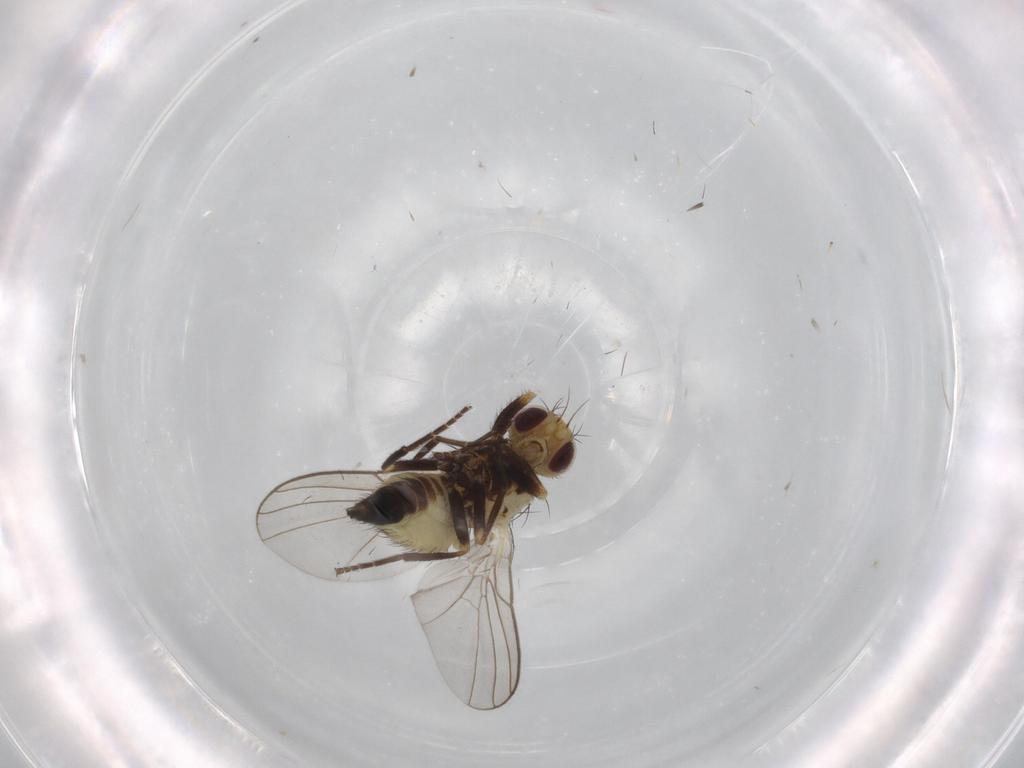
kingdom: Animalia
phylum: Arthropoda
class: Insecta
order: Diptera
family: Agromyzidae
